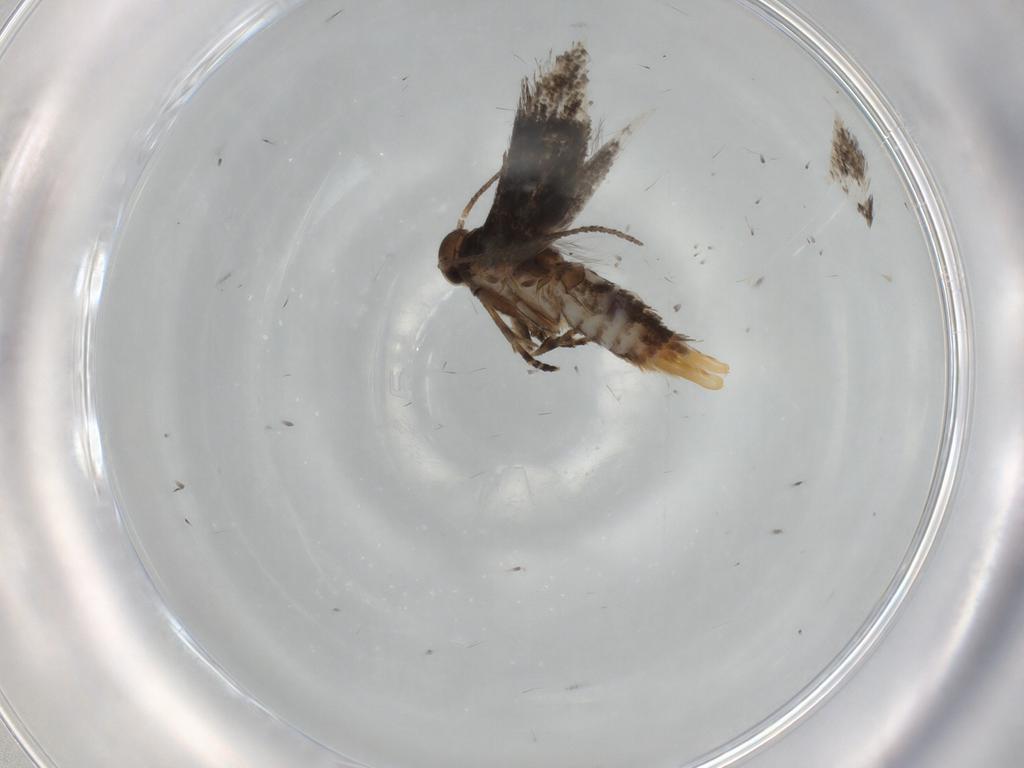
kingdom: Animalia
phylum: Arthropoda
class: Insecta
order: Lepidoptera
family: Elachistidae
